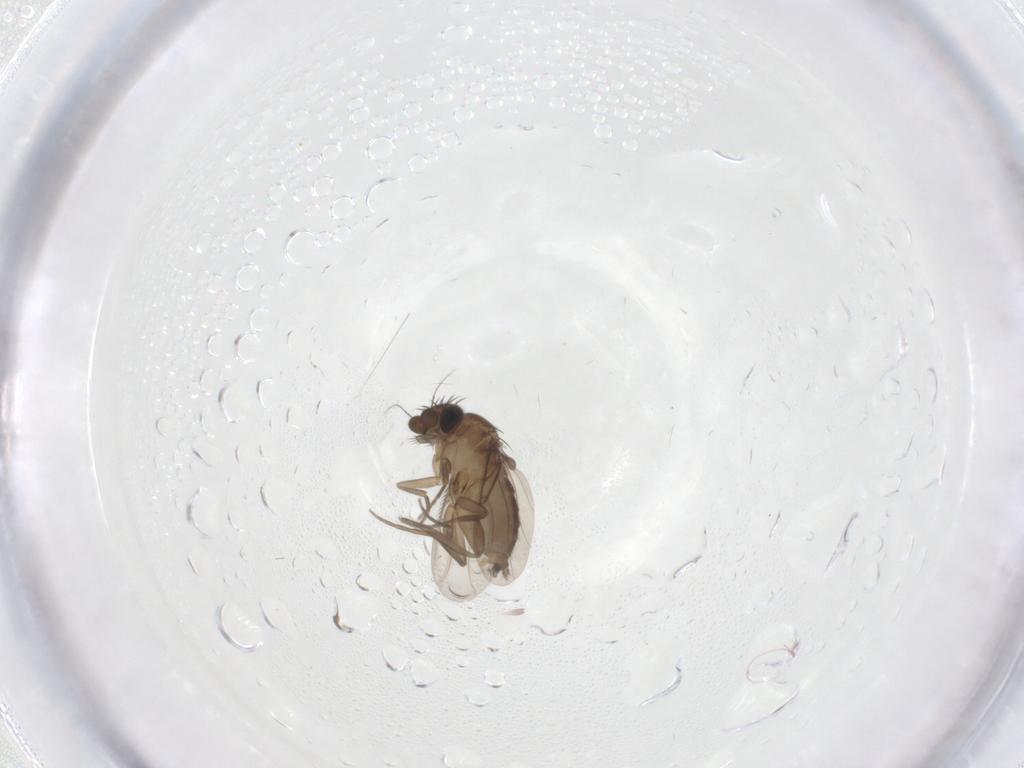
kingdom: Animalia
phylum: Arthropoda
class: Insecta
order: Diptera
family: Phoridae
